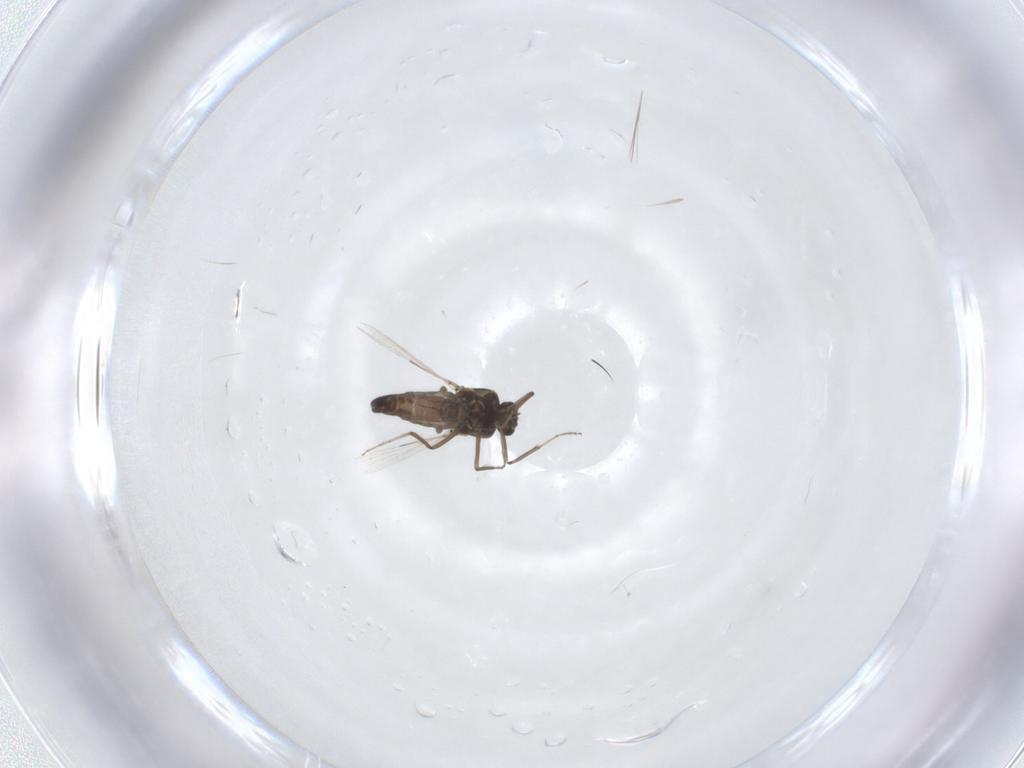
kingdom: Animalia
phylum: Arthropoda
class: Insecta
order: Diptera
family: Ceratopogonidae
